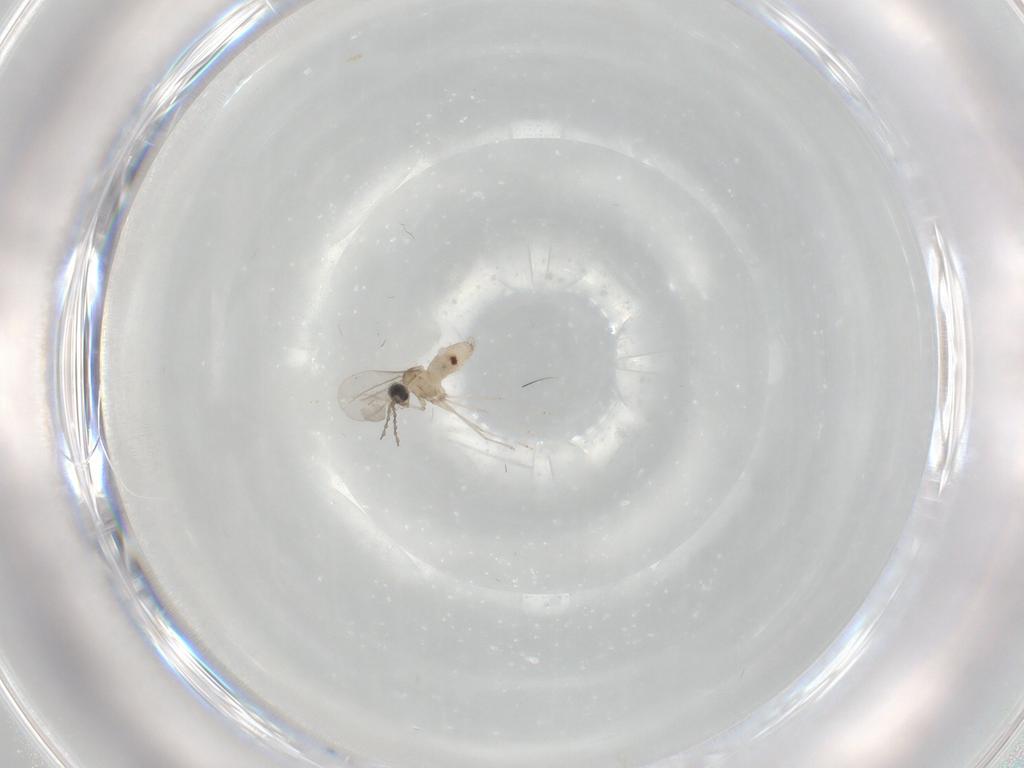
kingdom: Animalia
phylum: Arthropoda
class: Insecta
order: Diptera
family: Cecidomyiidae
